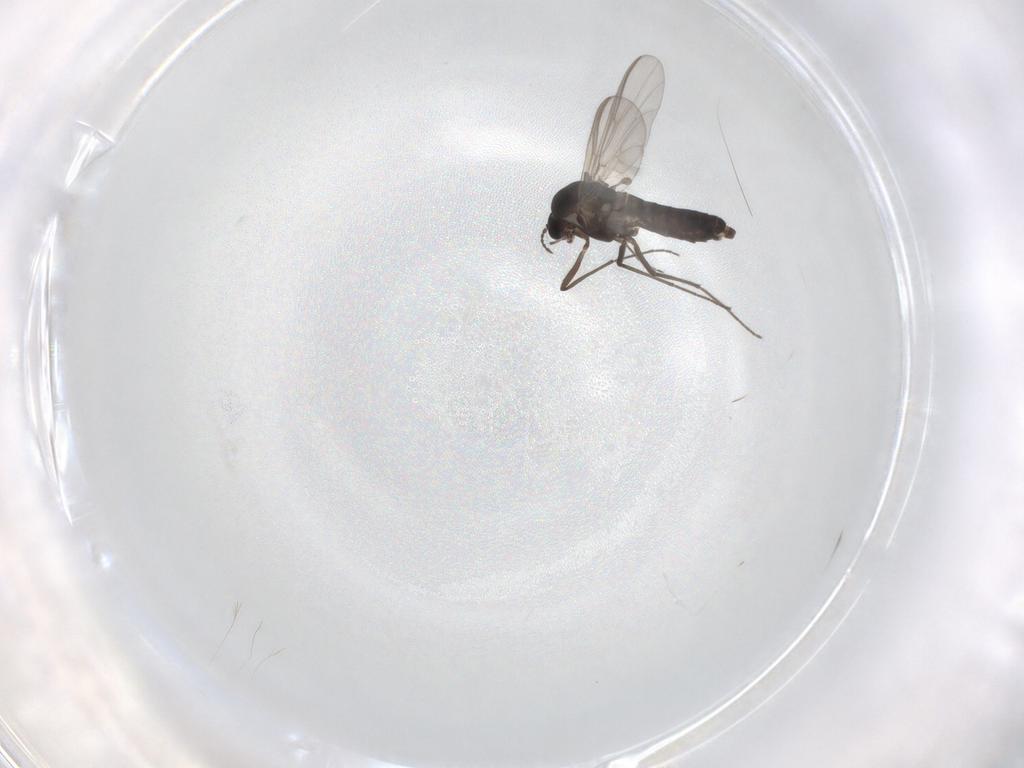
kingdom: Animalia
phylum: Arthropoda
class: Insecta
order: Diptera
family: Chironomidae
